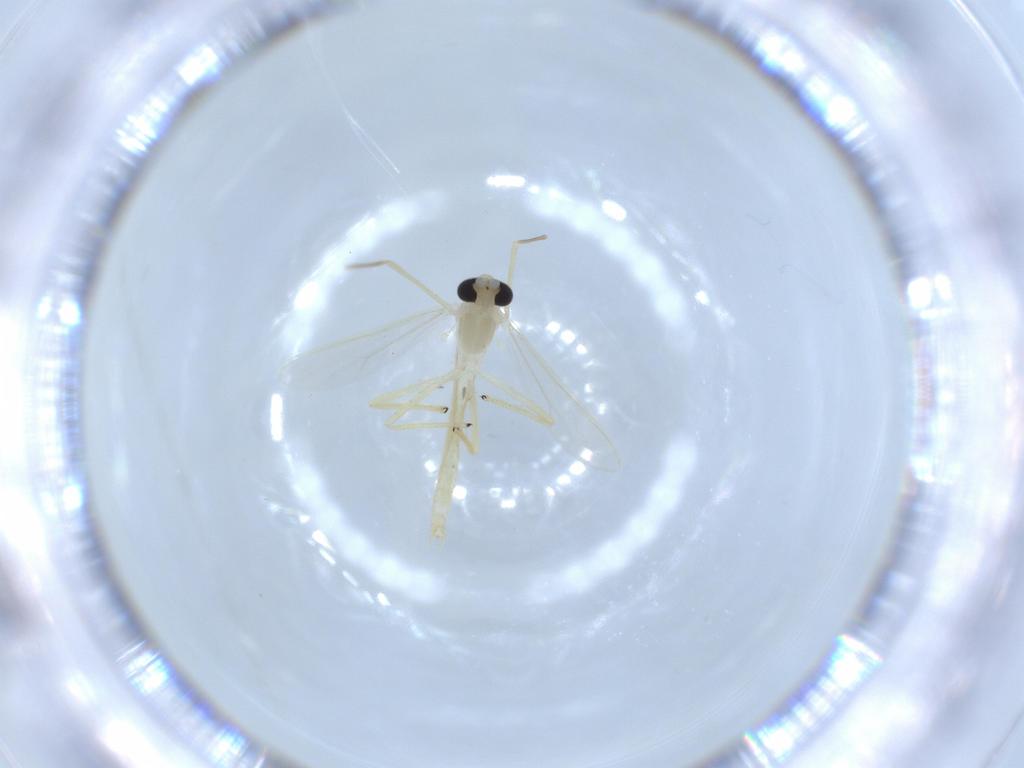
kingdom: Animalia
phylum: Arthropoda
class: Insecta
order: Diptera
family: Chironomidae
